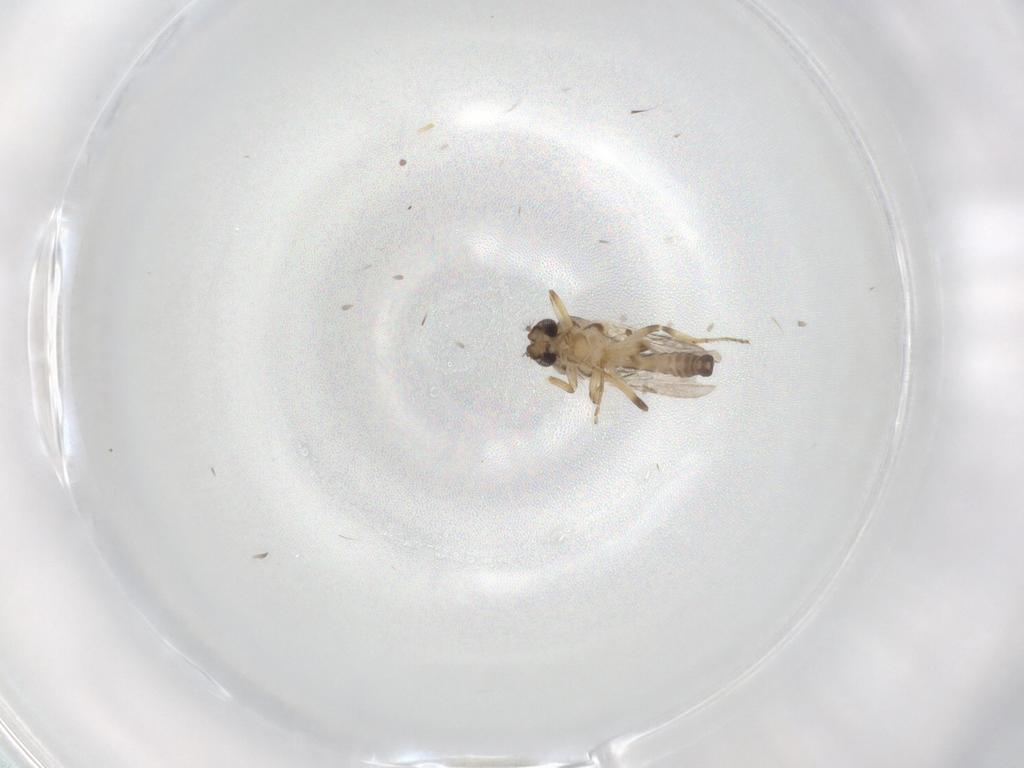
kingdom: Animalia
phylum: Arthropoda
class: Insecta
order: Diptera
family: Ceratopogonidae
